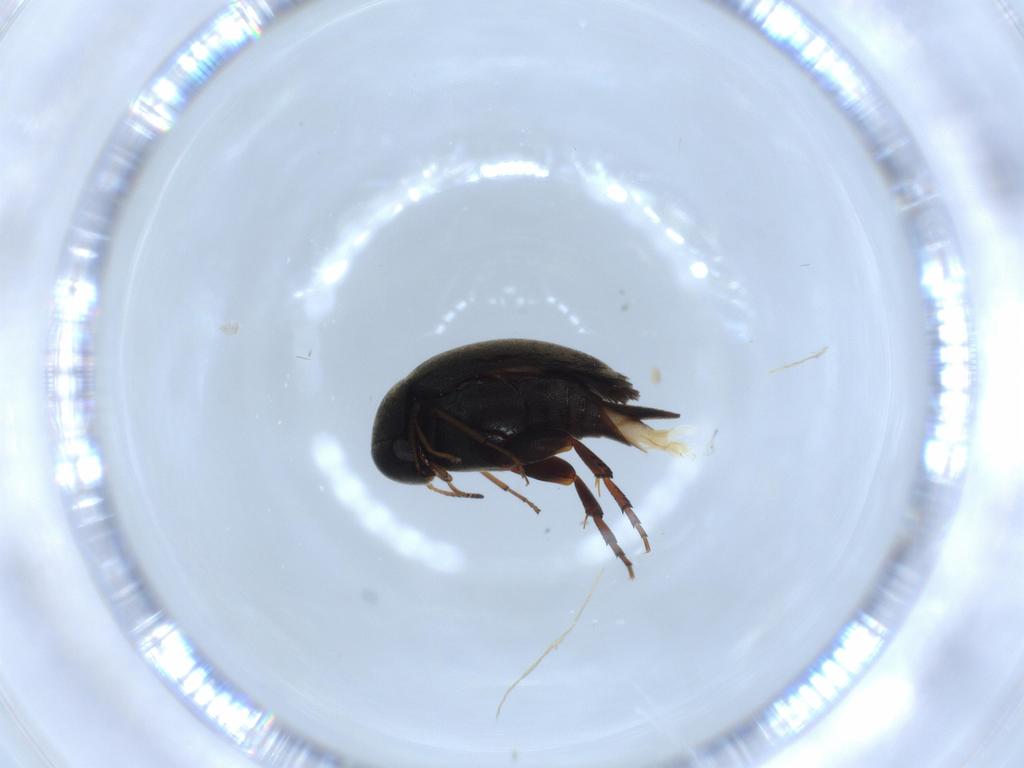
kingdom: Animalia
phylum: Arthropoda
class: Insecta
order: Coleoptera
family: Mordellidae
